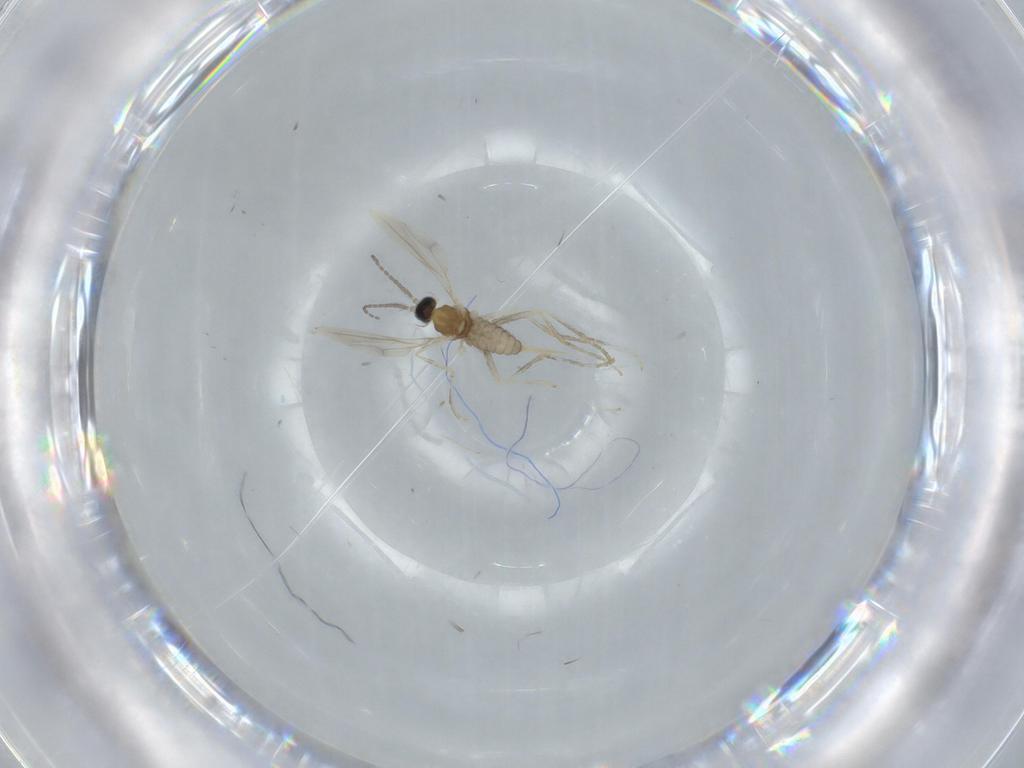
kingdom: Animalia
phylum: Arthropoda
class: Insecta
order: Diptera
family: Cecidomyiidae
